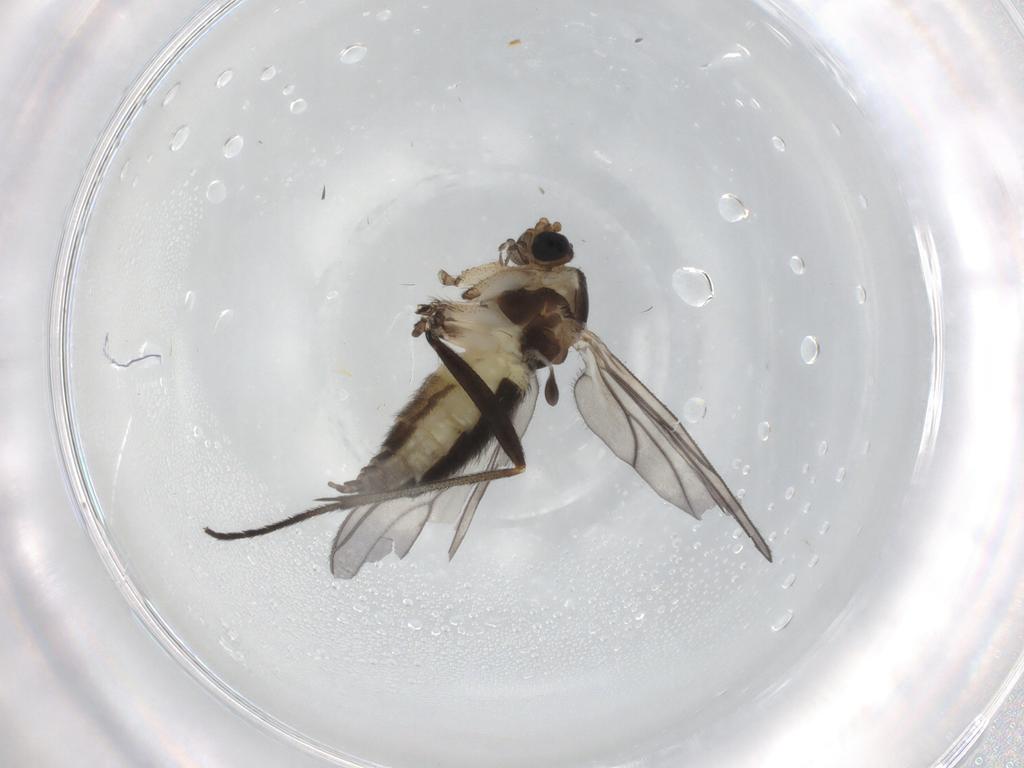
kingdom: Animalia
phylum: Arthropoda
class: Insecta
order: Diptera
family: Sciaridae
